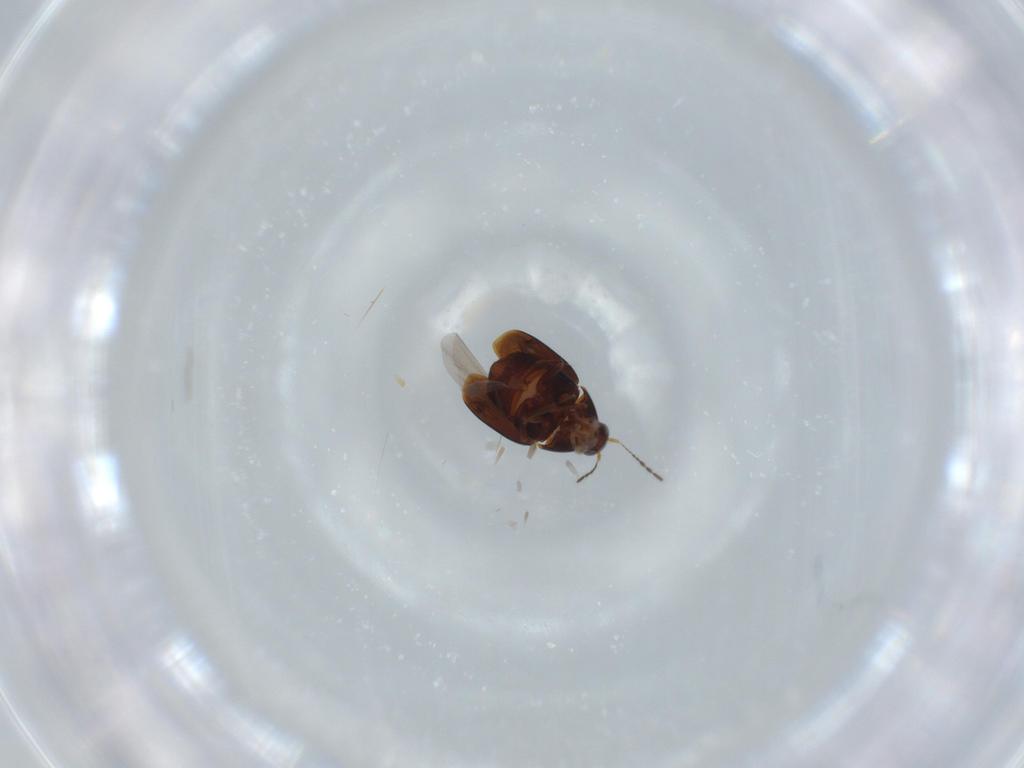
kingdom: Animalia
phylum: Arthropoda
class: Insecta
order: Coleoptera
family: Staphylinidae
